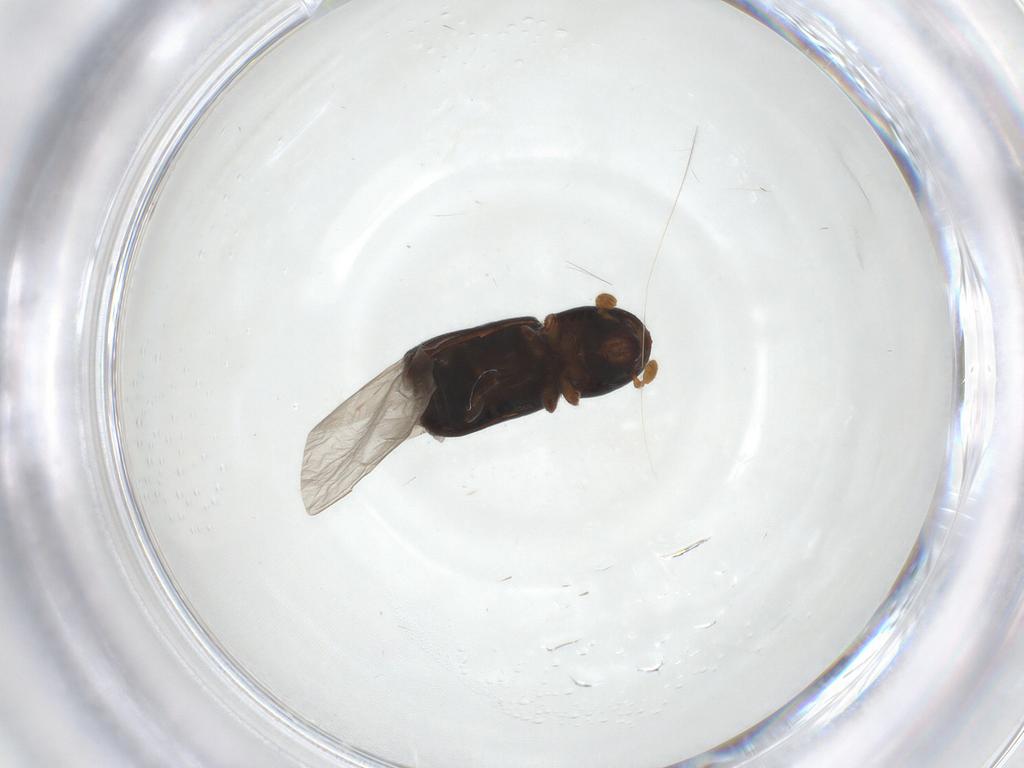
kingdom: Animalia
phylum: Arthropoda
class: Insecta
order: Coleoptera
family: Curculionidae
